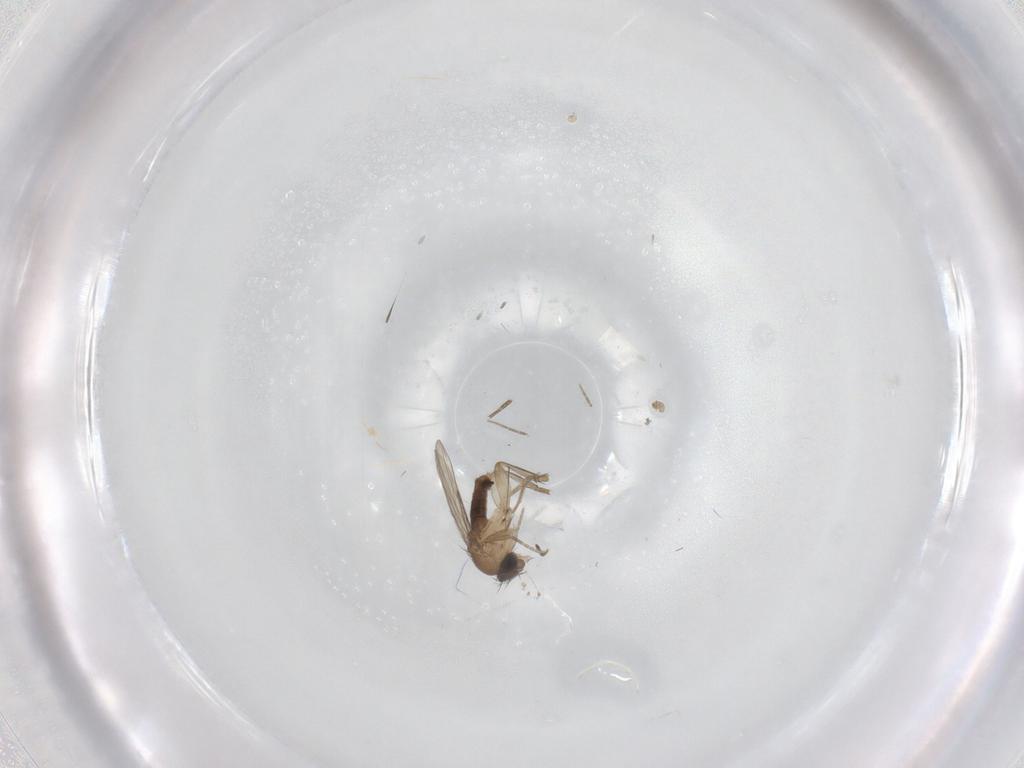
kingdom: Animalia
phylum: Arthropoda
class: Insecta
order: Diptera
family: Phoridae
